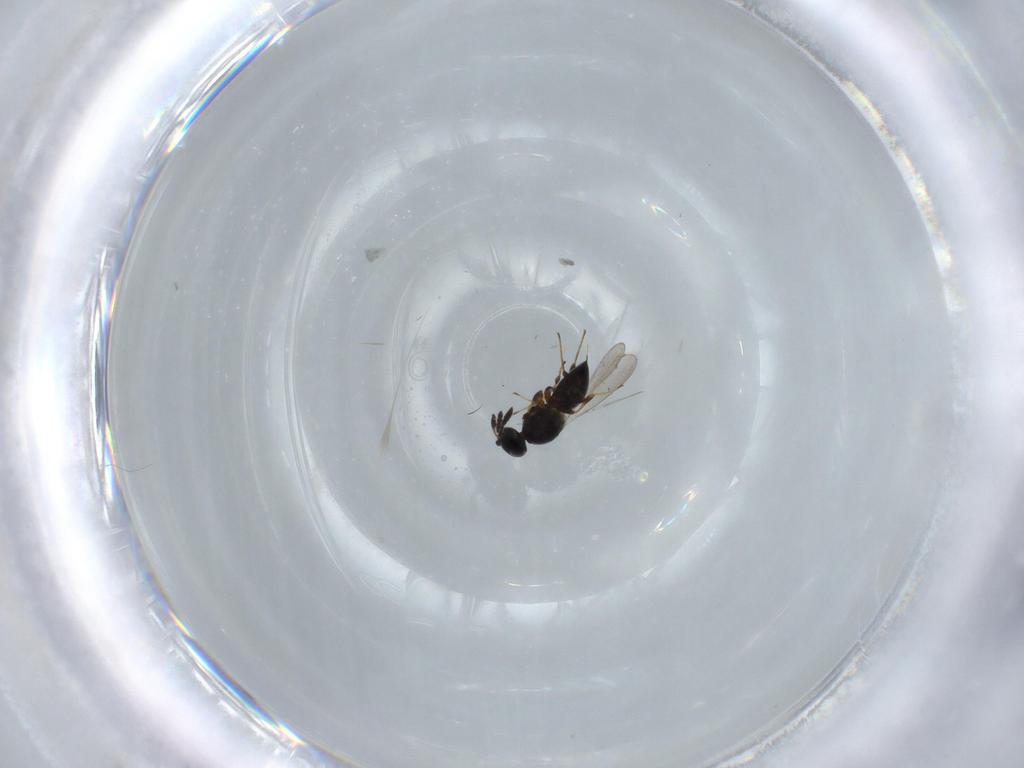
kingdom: Animalia
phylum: Arthropoda
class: Insecta
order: Hymenoptera
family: Platygastridae
